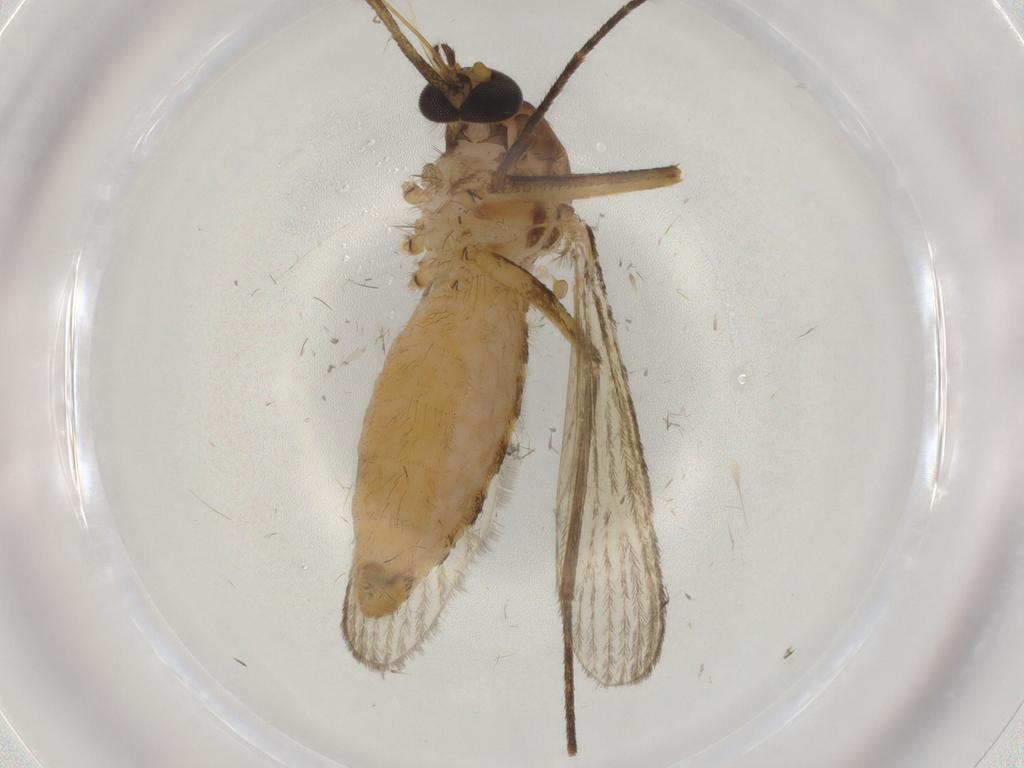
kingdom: Animalia
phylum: Arthropoda
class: Insecta
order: Diptera
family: Culicidae
